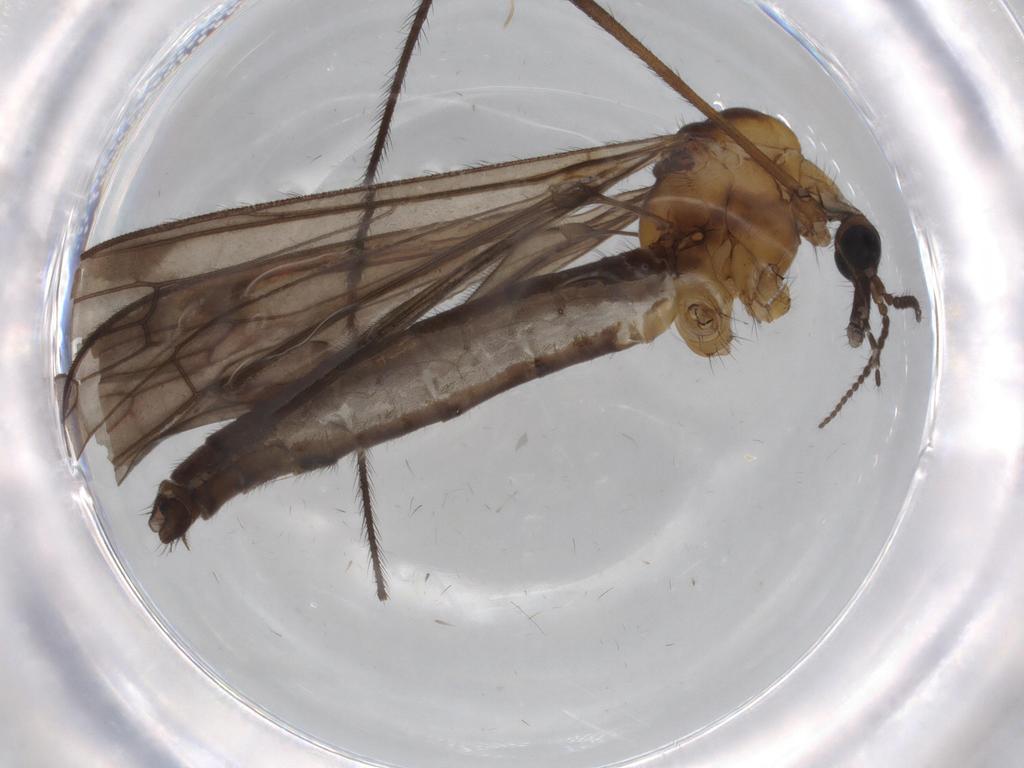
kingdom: Animalia
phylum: Arthropoda
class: Insecta
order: Diptera
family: Limoniidae
